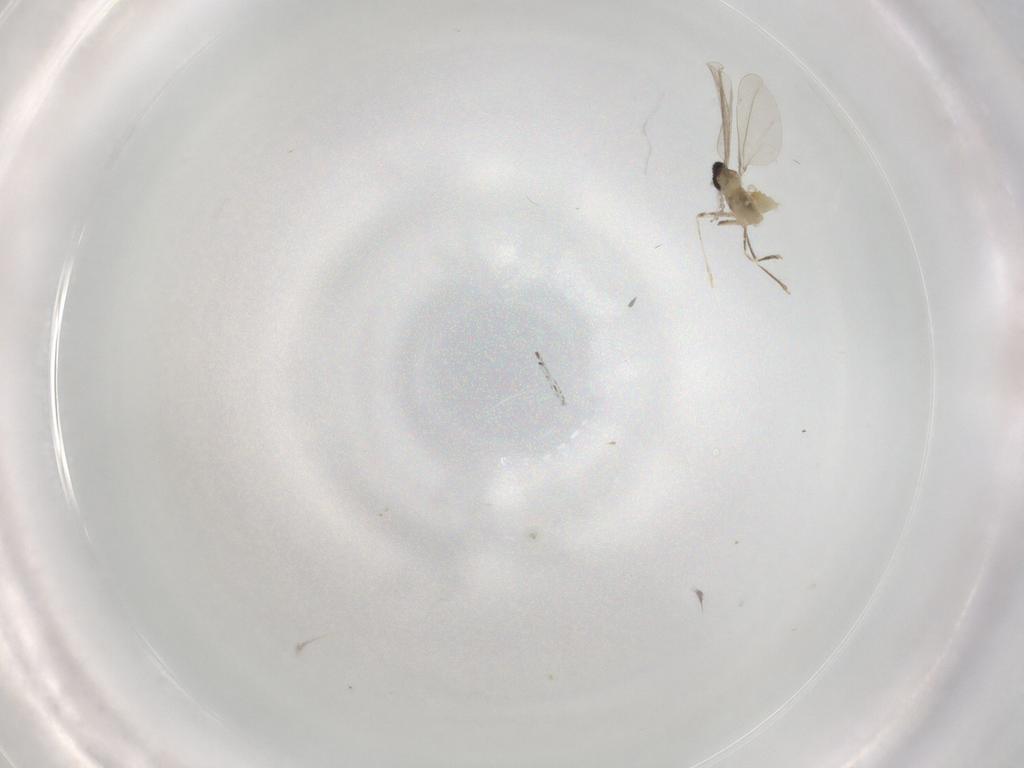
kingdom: Animalia
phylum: Arthropoda
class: Insecta
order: Diptera
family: Cecidomyiidae
